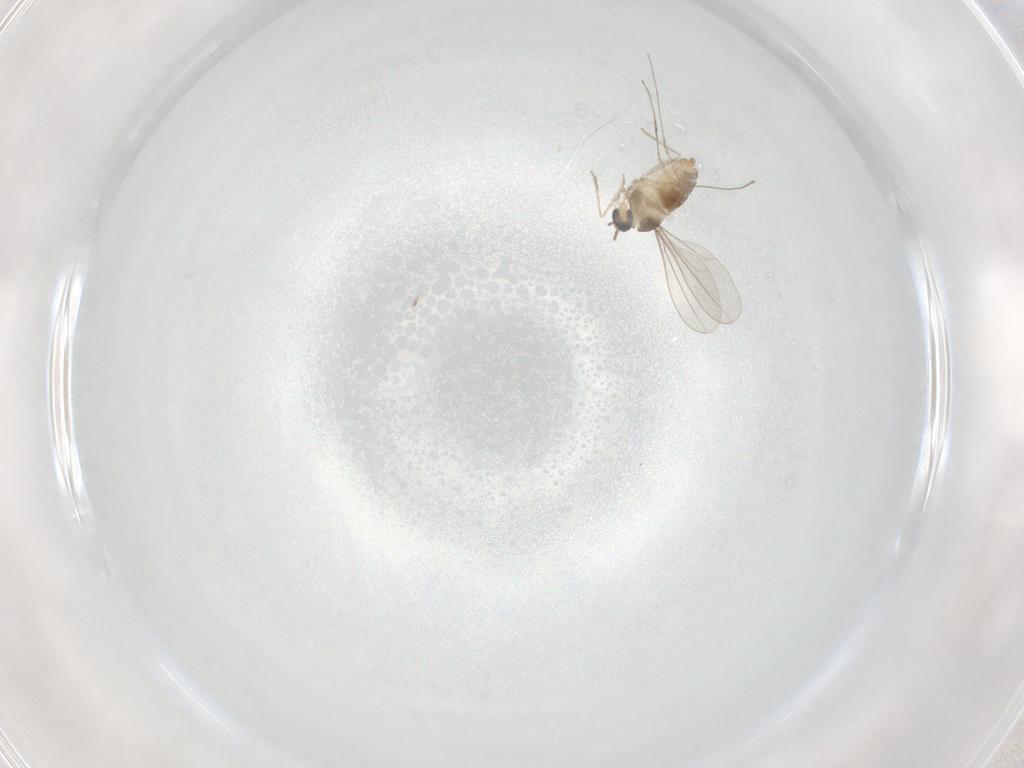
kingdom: Animalia
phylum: Arthropoda
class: Insecta
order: Diptera
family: Cecidomyiidae
